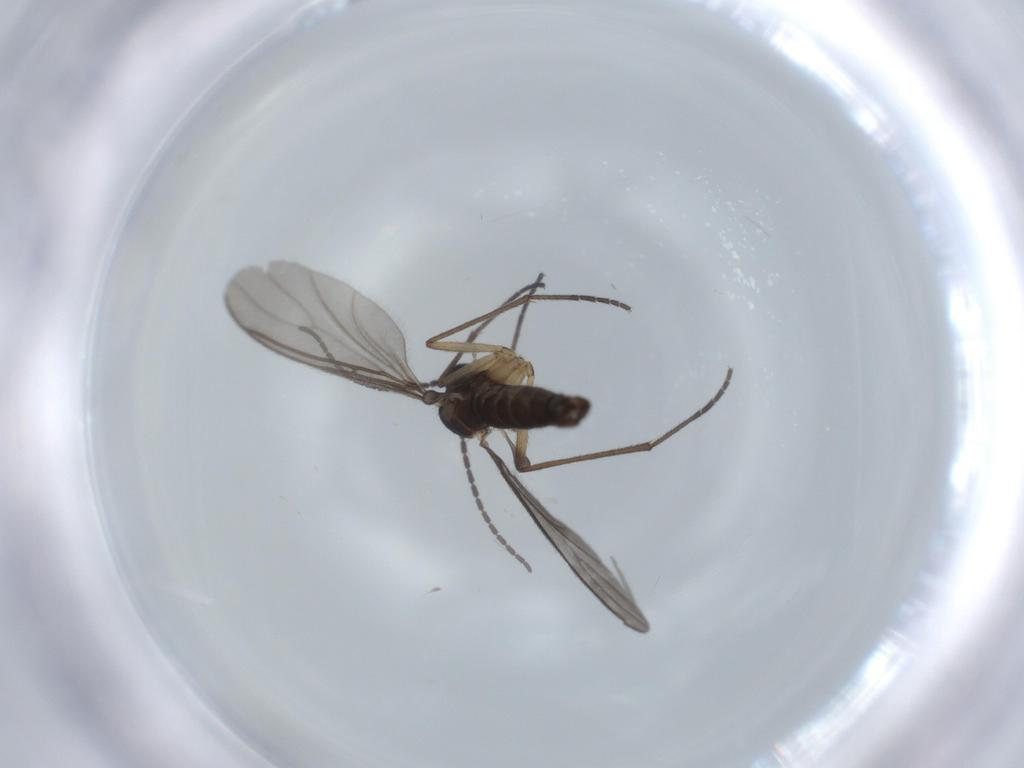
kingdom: Animalia
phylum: Arthropoda
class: Insecta
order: Diptera
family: Sciaridae
